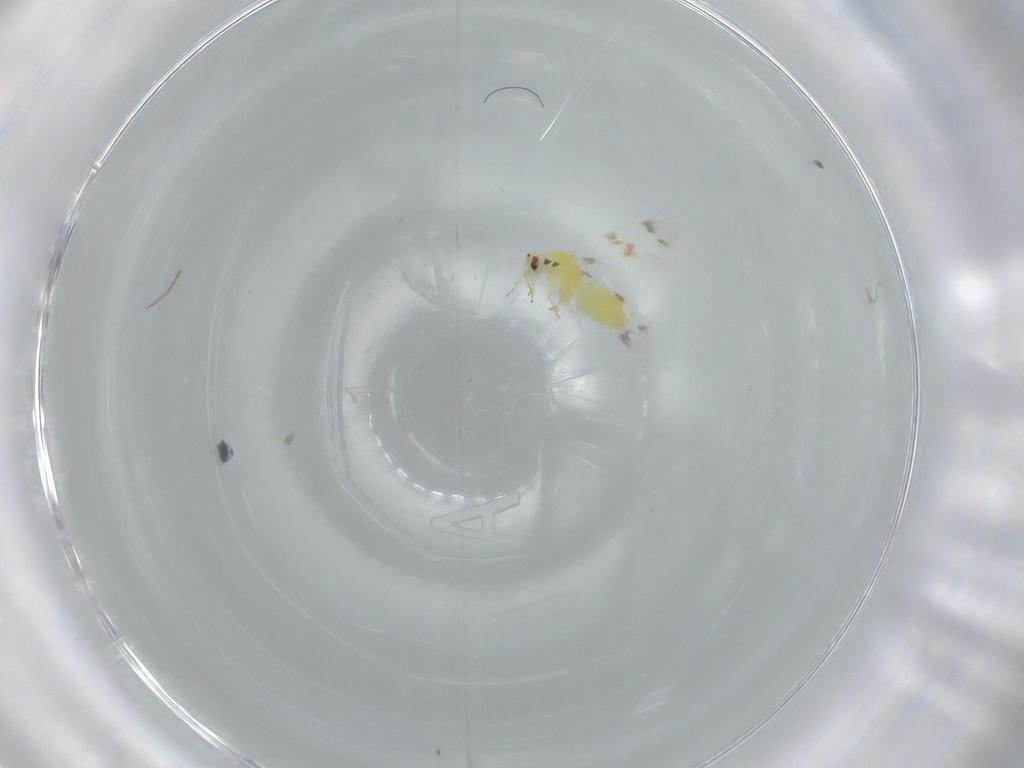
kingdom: Animalia
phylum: Arthropoda
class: Insecta
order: Hemiptera
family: Aleyrodidae
